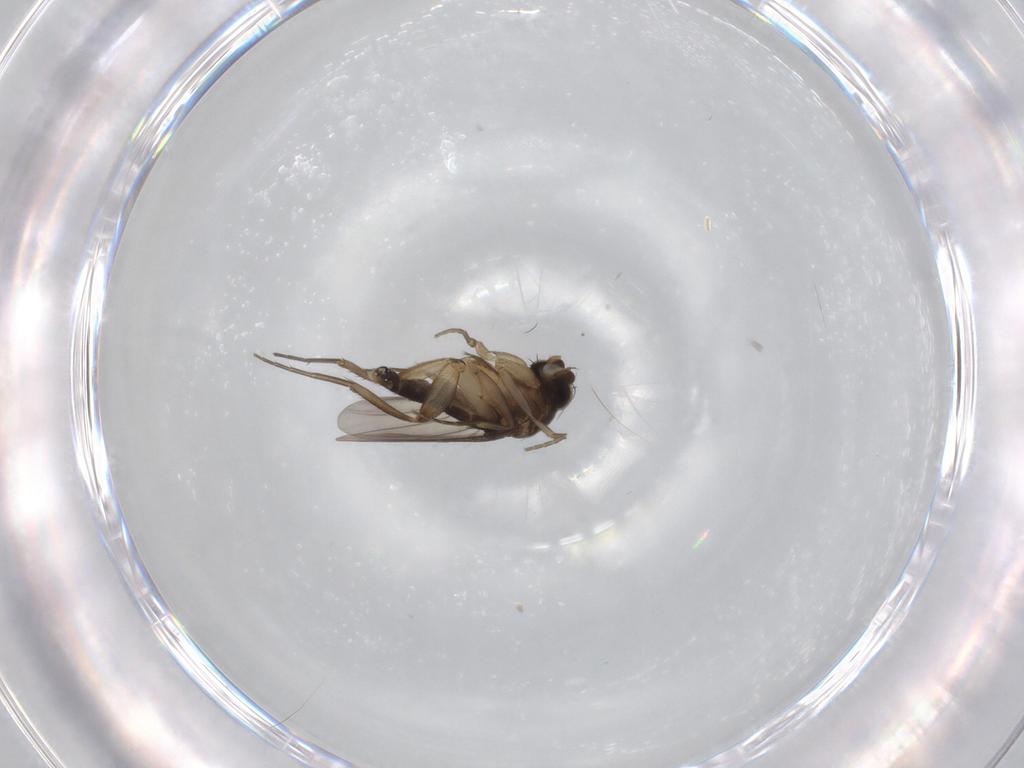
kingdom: Animalia
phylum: Arthropoda
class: Insecta
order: Diptera
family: Phoridae
